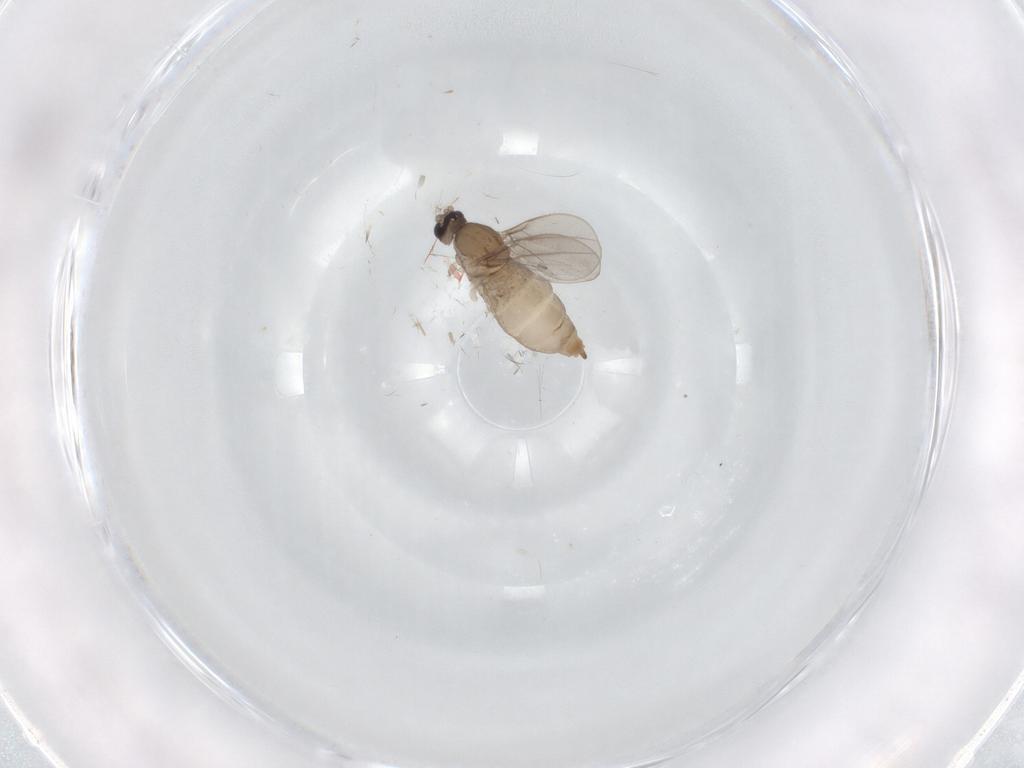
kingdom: Animalia
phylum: Arthropoda
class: Insecta
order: Diptera
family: Cecidomyiidae
